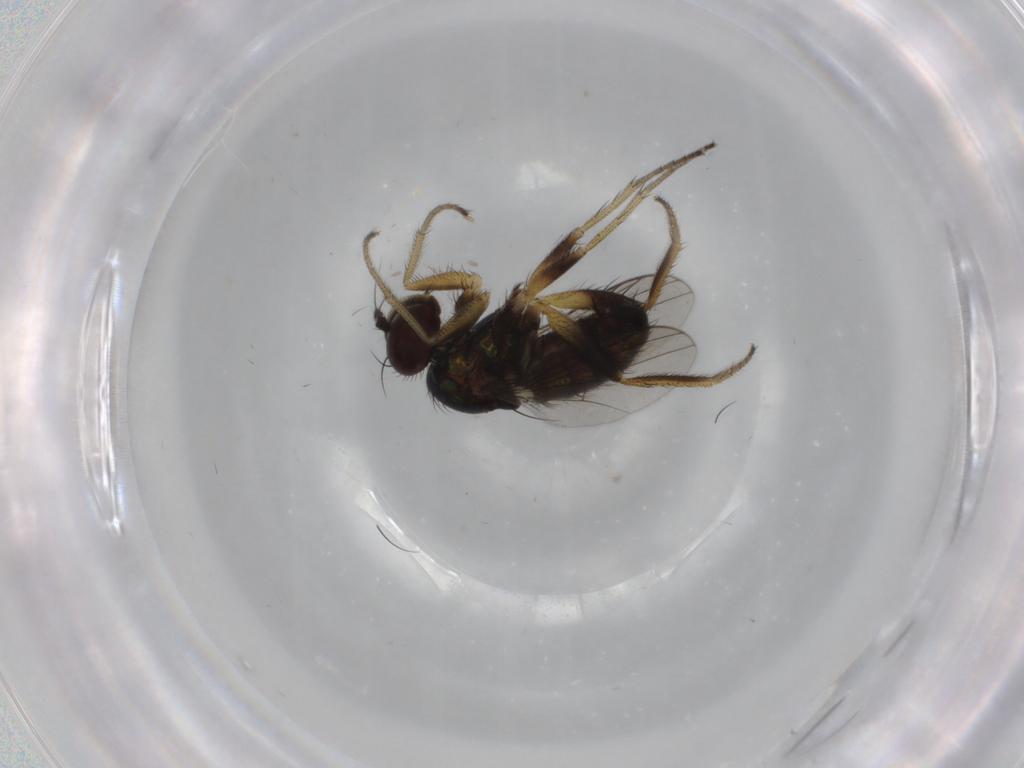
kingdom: Animalia
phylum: Arthropoda
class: Insecta
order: Diptera
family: Dolichopodidae
